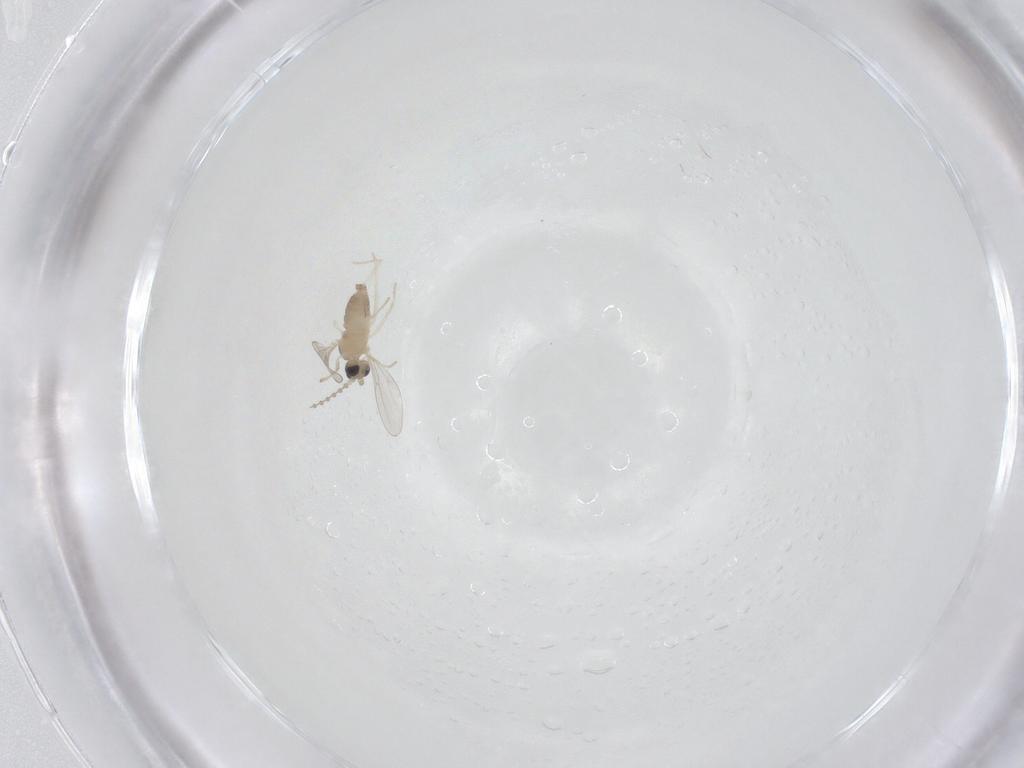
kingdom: Animalia
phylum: Arthropoda
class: Insecta
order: Diptera
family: Cecidomyiidae
